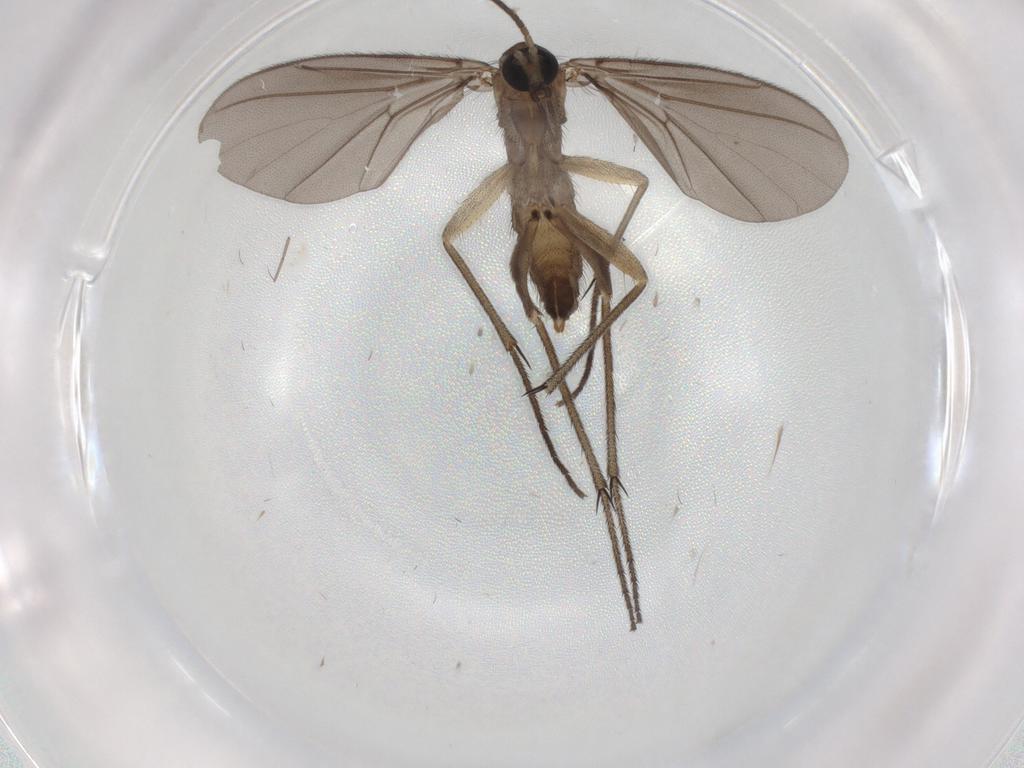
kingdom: Animalia
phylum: Arthropoda
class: Insecta
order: Diptera
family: Diadocidiidae
